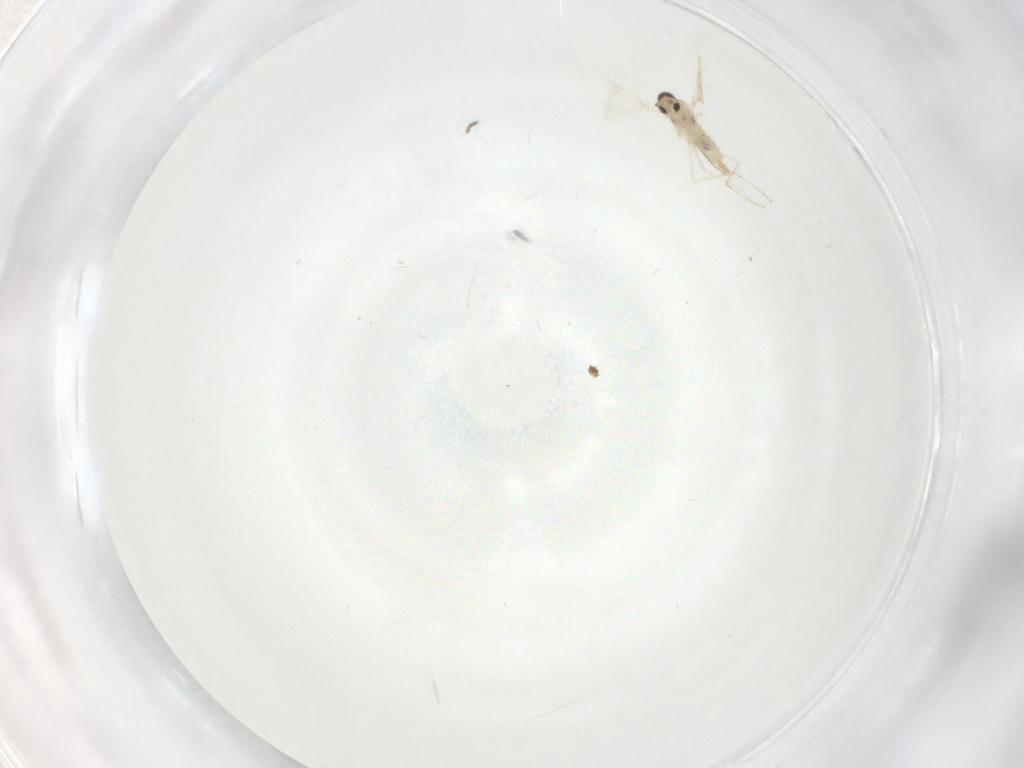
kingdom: Animalia
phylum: Arthropoda
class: Insecta
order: Diptera
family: Cecidomyiidae
